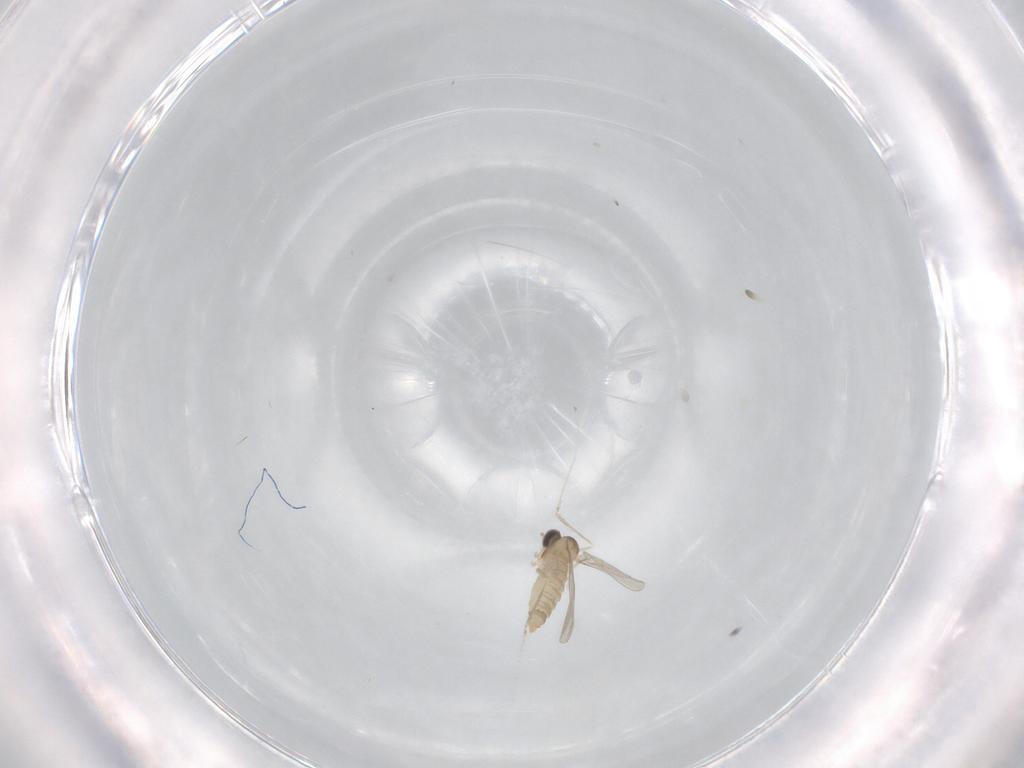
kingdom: Animalia
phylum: Arthropoda
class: Insecta
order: Diptera
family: Cecidomyiidae
